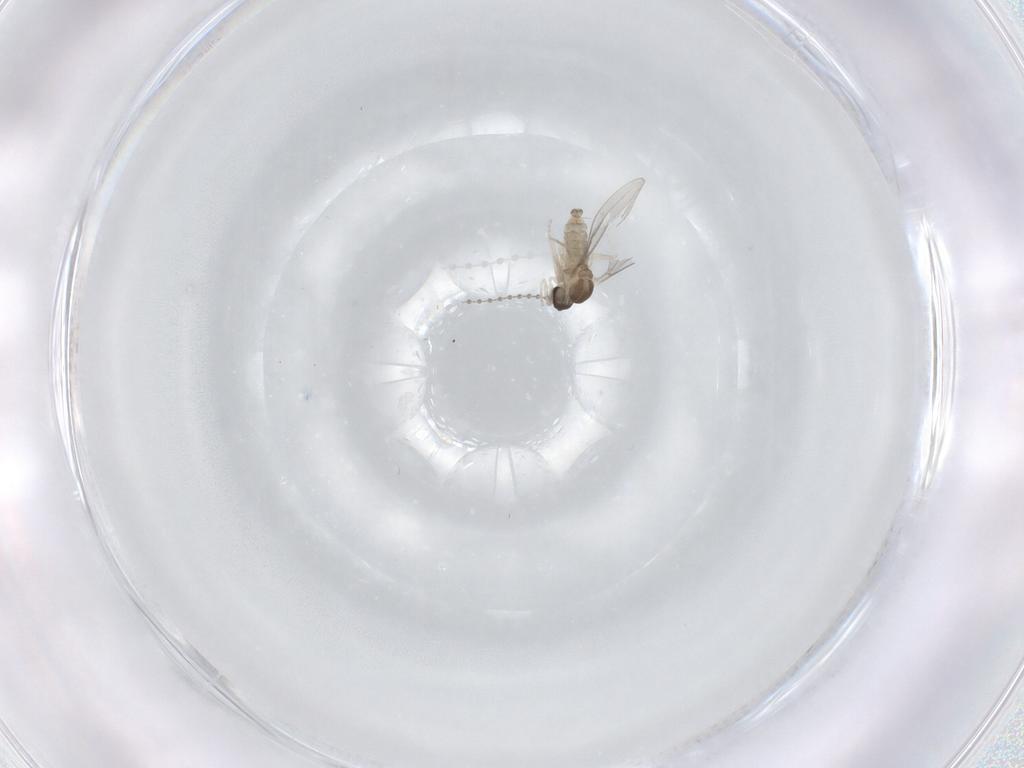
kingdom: Animalia
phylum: Arthropoda
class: Insecta
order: Diptera
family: Cecidomyiidae
